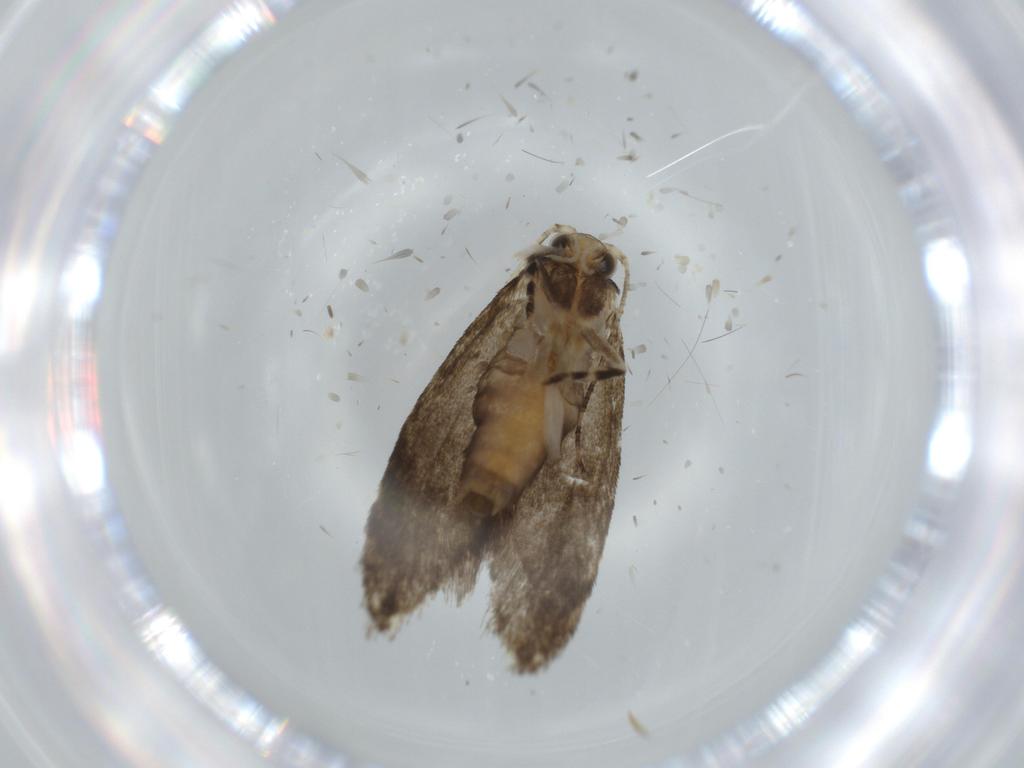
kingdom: Animalia
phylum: Arthropoda
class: Insecta
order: Lepidoptera
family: Tineidae
